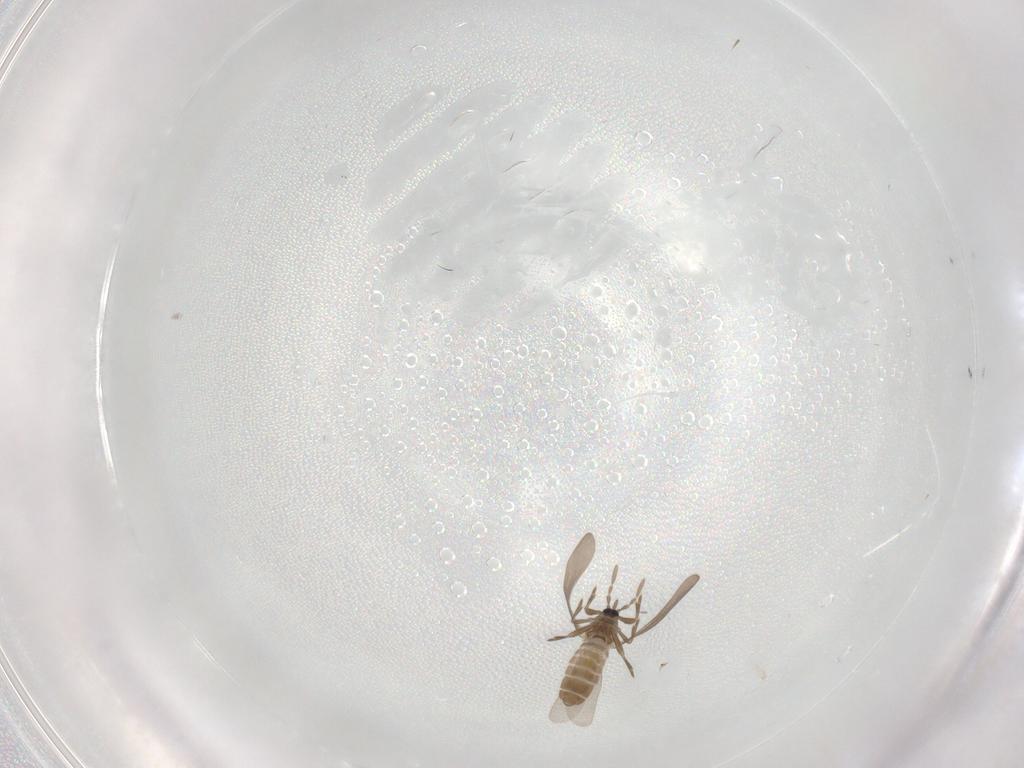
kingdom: Animalia
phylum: Arthropoda
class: Insecta
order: Hemiptera
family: Enicocephalidae
